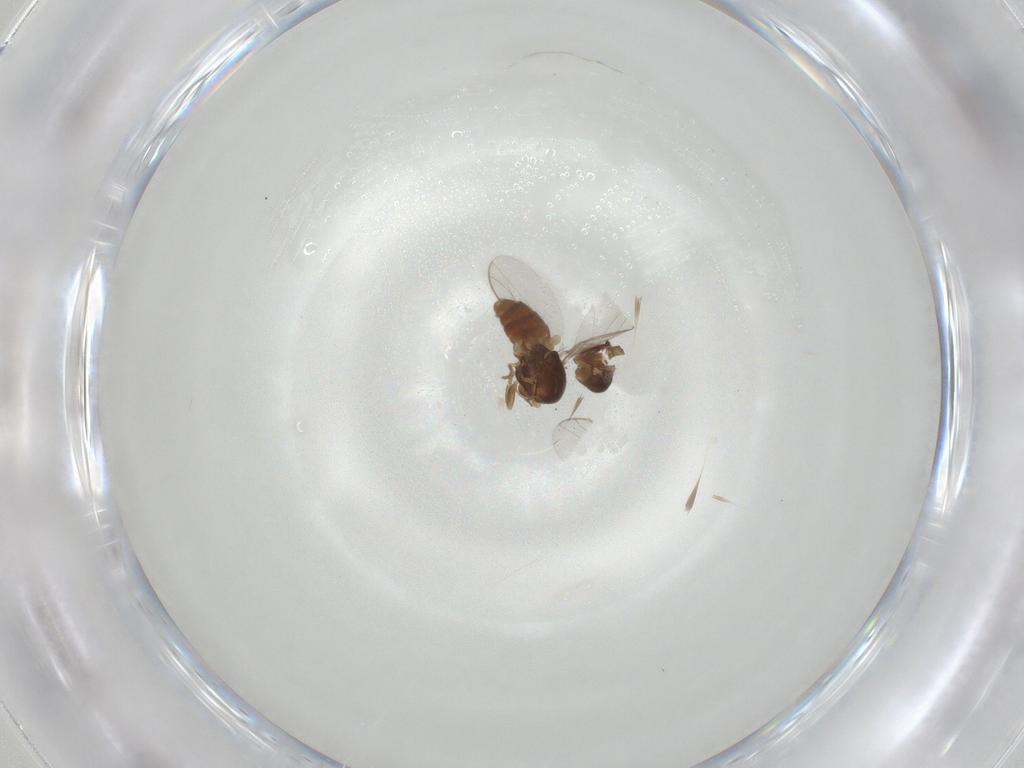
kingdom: Animalia
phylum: Arthropoda
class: Insecta
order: Diptera
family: Chloropidae
